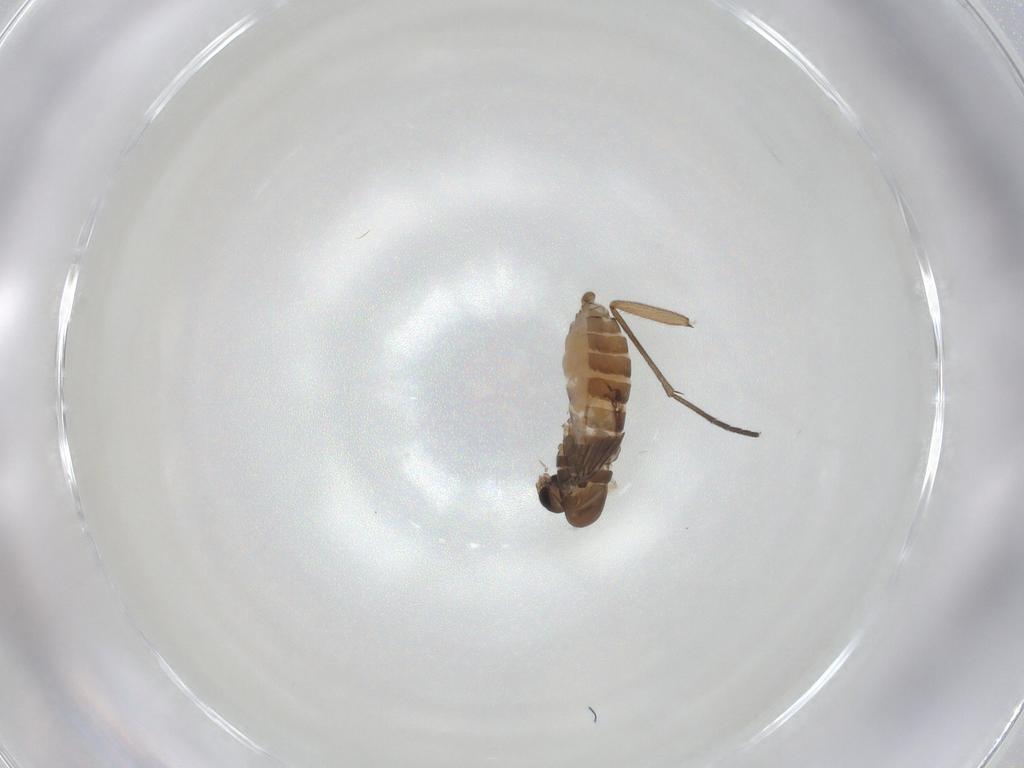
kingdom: Animalia
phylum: Arthropoda
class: Insecta
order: Diptera
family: Sciaridae
